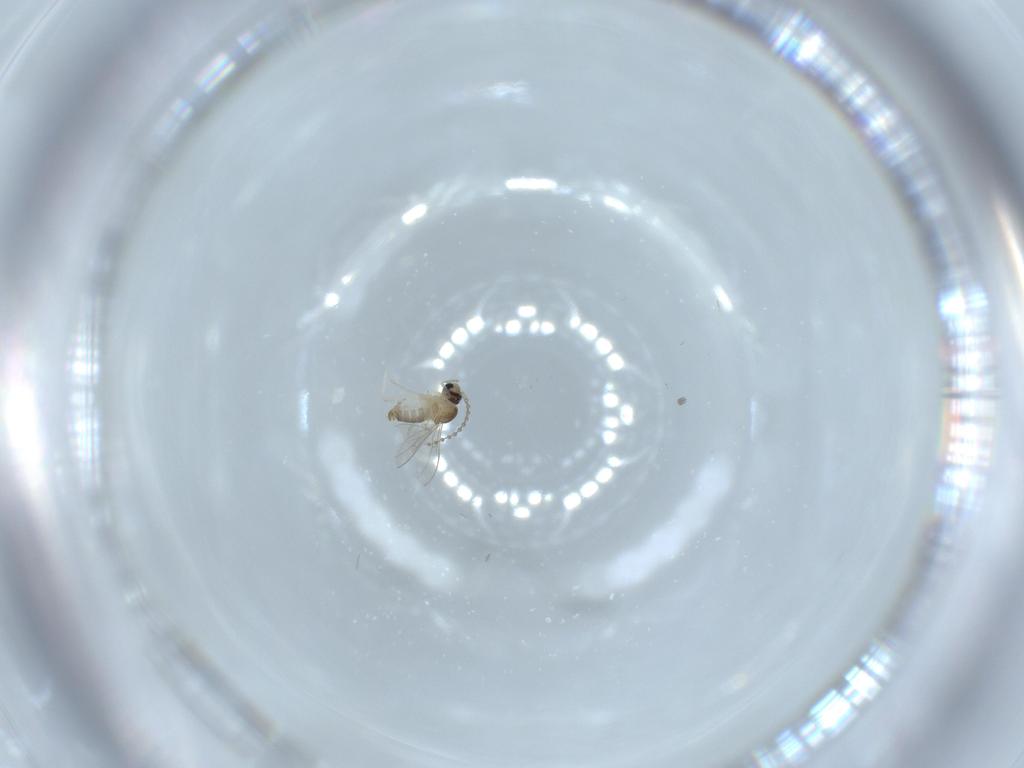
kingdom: Animalia
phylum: Arthropoda
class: Insecta
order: Diptera
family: Cecidomyiidae
